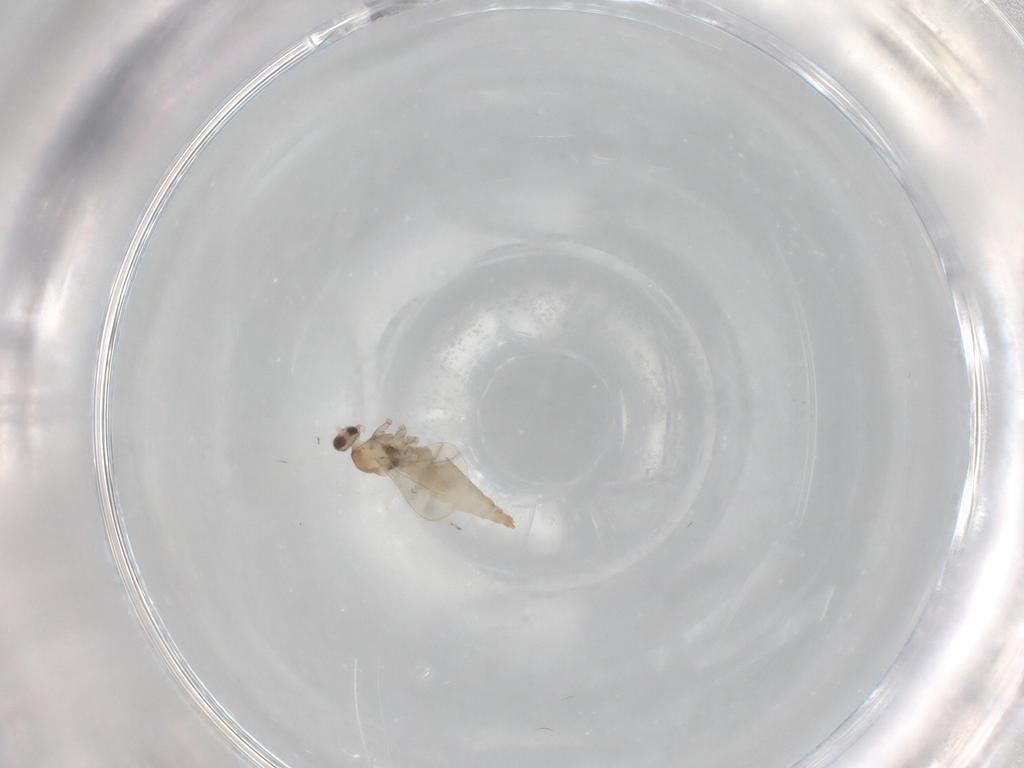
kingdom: Animalia
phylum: Arthropoda
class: Insecta
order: Diptera
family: Cecidomyiidae
